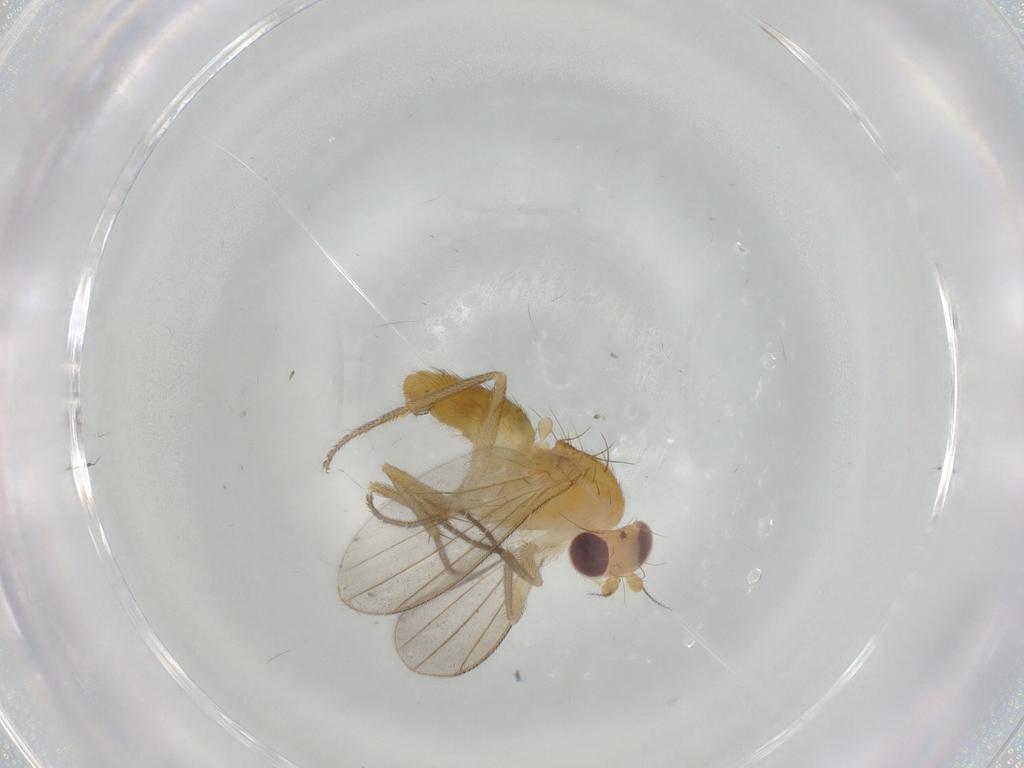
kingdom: Animalia
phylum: Arthropoda
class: Insecta
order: Diptera
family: Clusiidae
